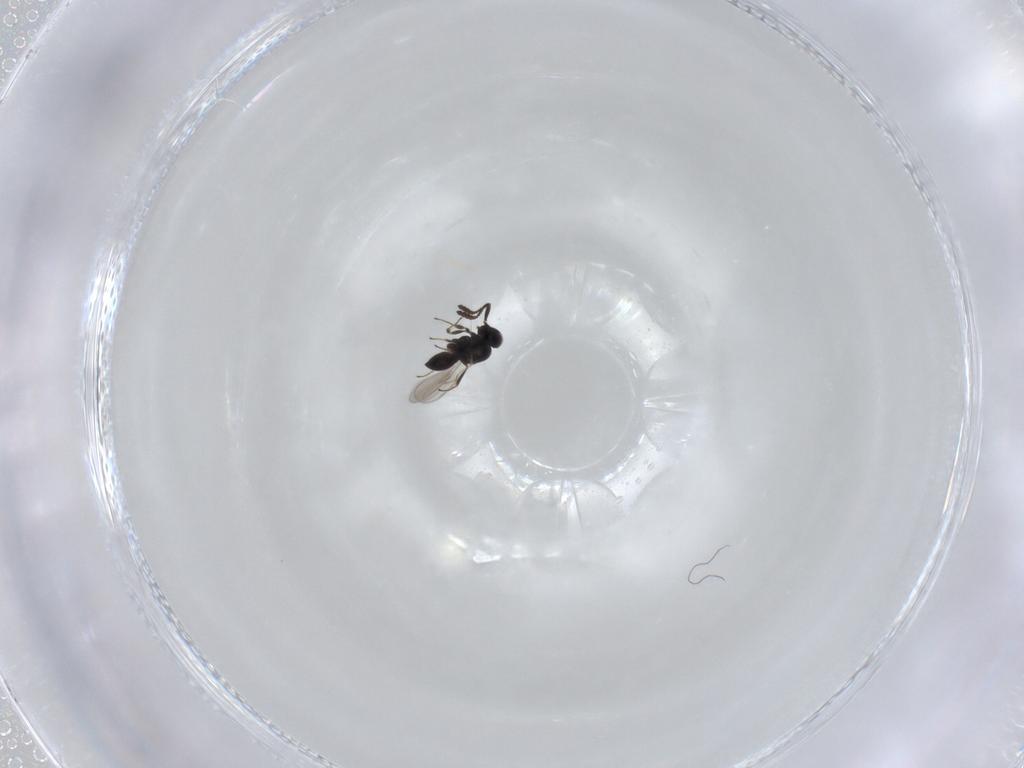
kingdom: Animalia
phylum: Arthropoda
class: Insecta
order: Hymenoptera
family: Scelionidae
